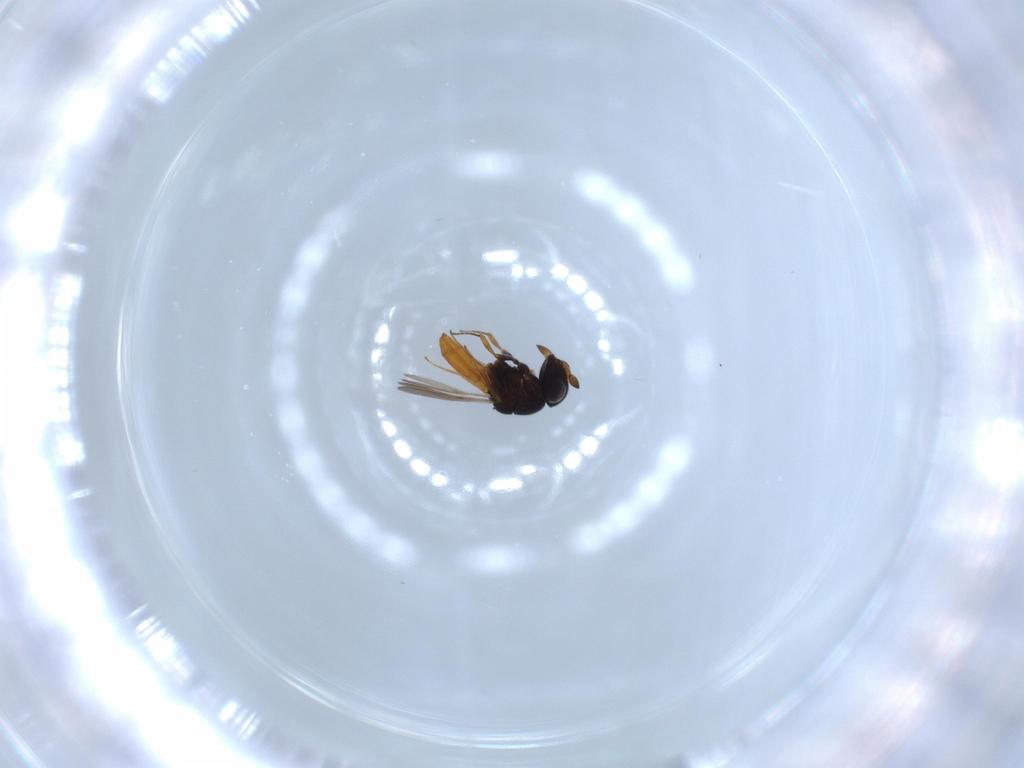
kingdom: Animalia
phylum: Arthropoda
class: Insecta
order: Hymenoptera
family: Scelionidae
